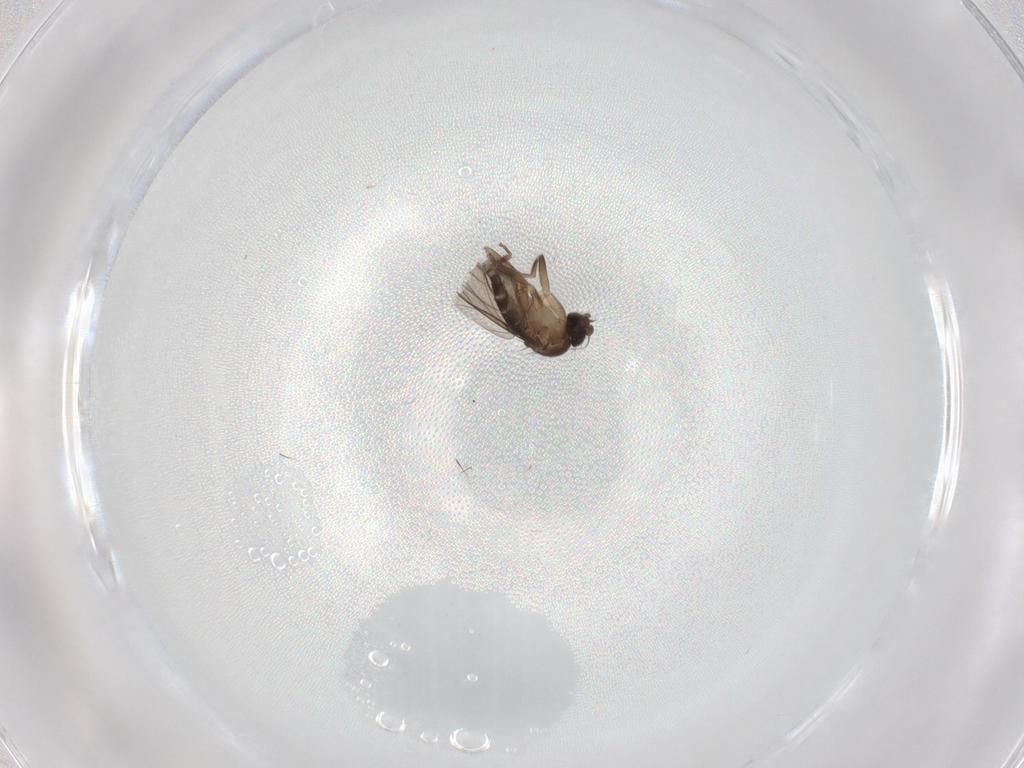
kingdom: Animalia
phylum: Arthropoda
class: Insecta
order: Diptera
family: Phoridae
